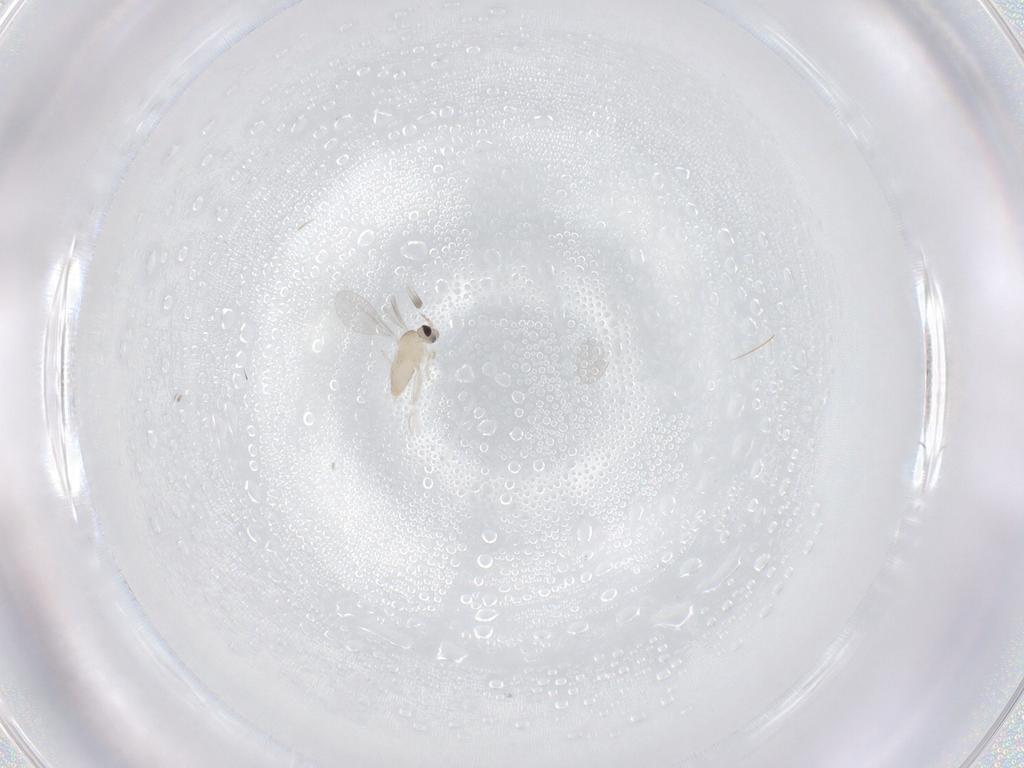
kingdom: Animalia
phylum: Arthropoda
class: Insecta
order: Diptera
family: Cecidomyiidae
